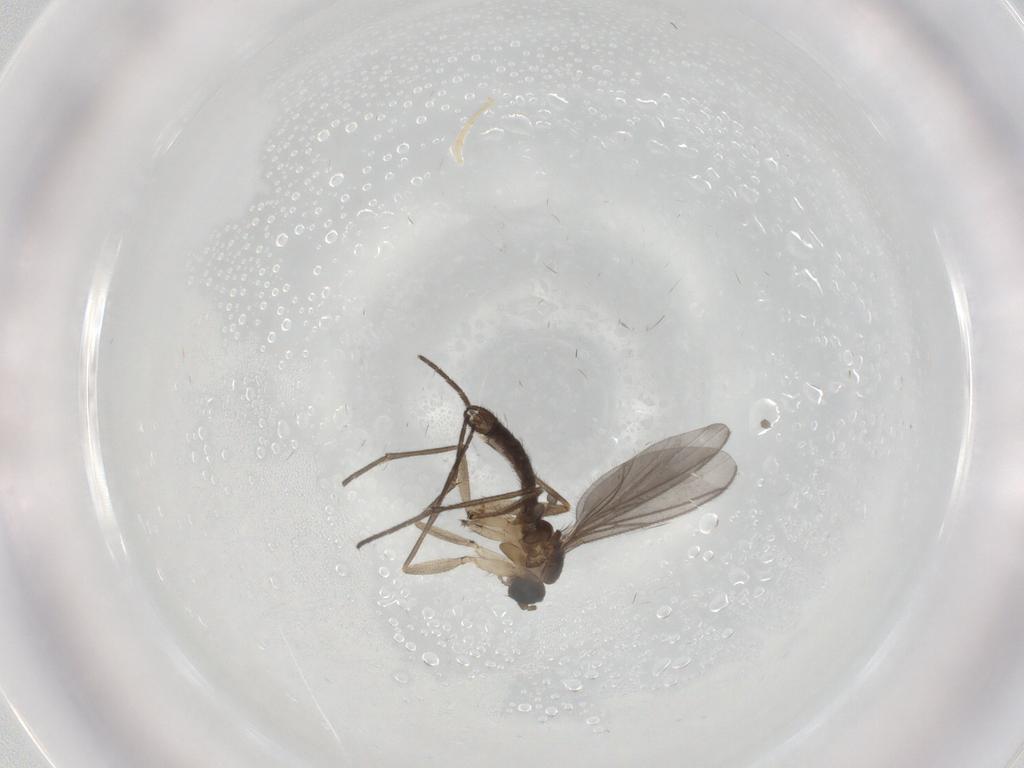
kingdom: Animalia
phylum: Arthropoda
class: Insecta
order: Diptera
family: Sciaridae
